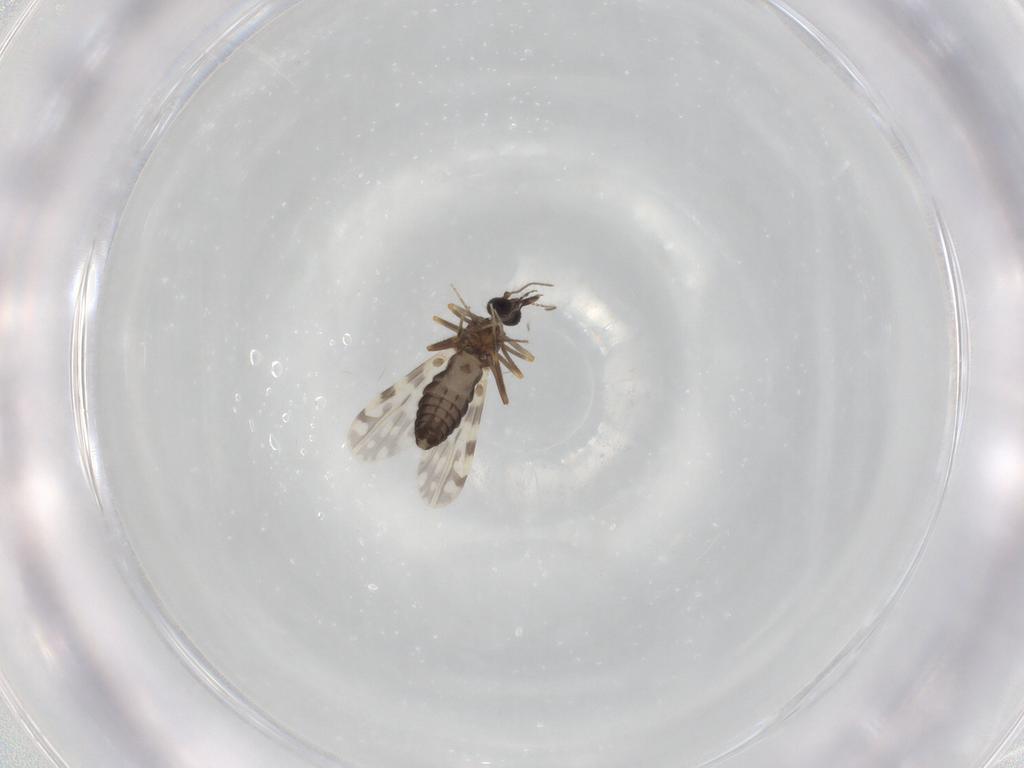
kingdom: Animalia
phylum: Arthropoda
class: Insecta
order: Diptera
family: Ceratopogonidae
